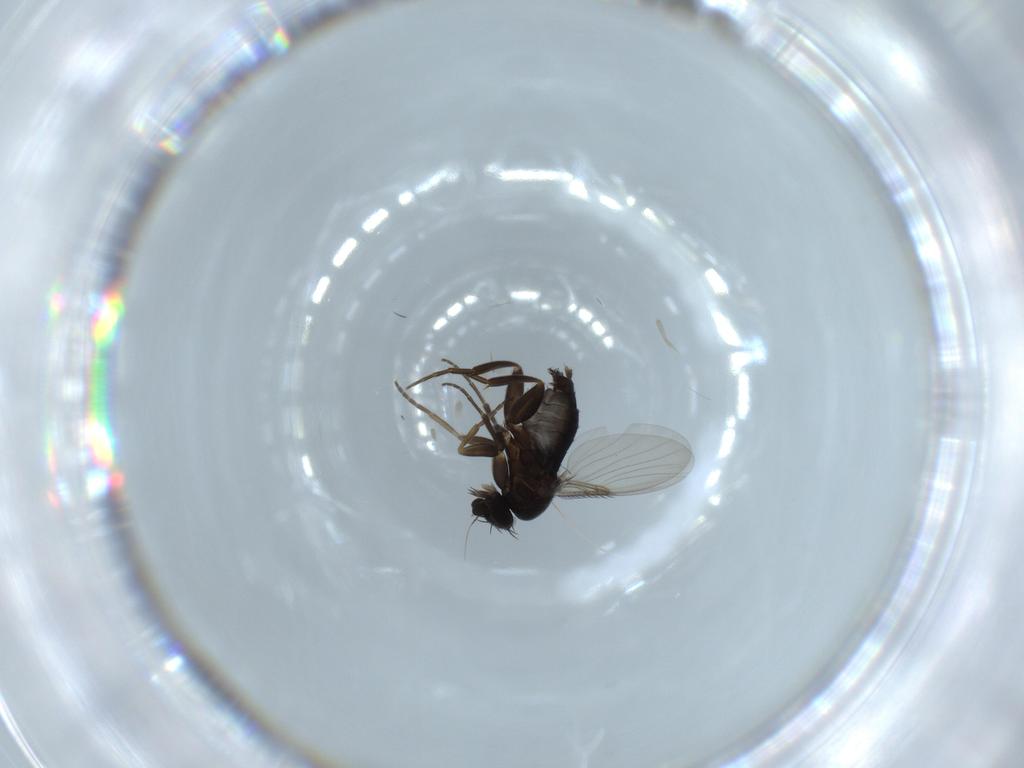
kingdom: Animalia
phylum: Arthropoda
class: Insecta
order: Diptera
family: Phoridae
